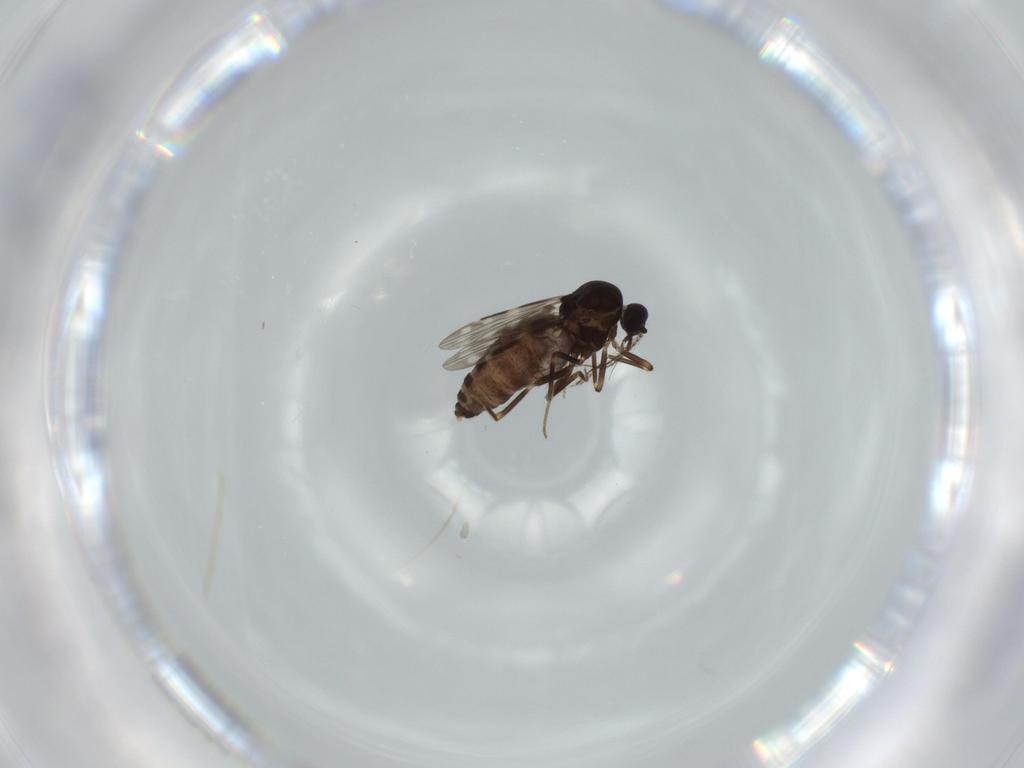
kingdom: Animalia
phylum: Arthropoda
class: Insecta
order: Diptera
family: Ceratopogonidae
